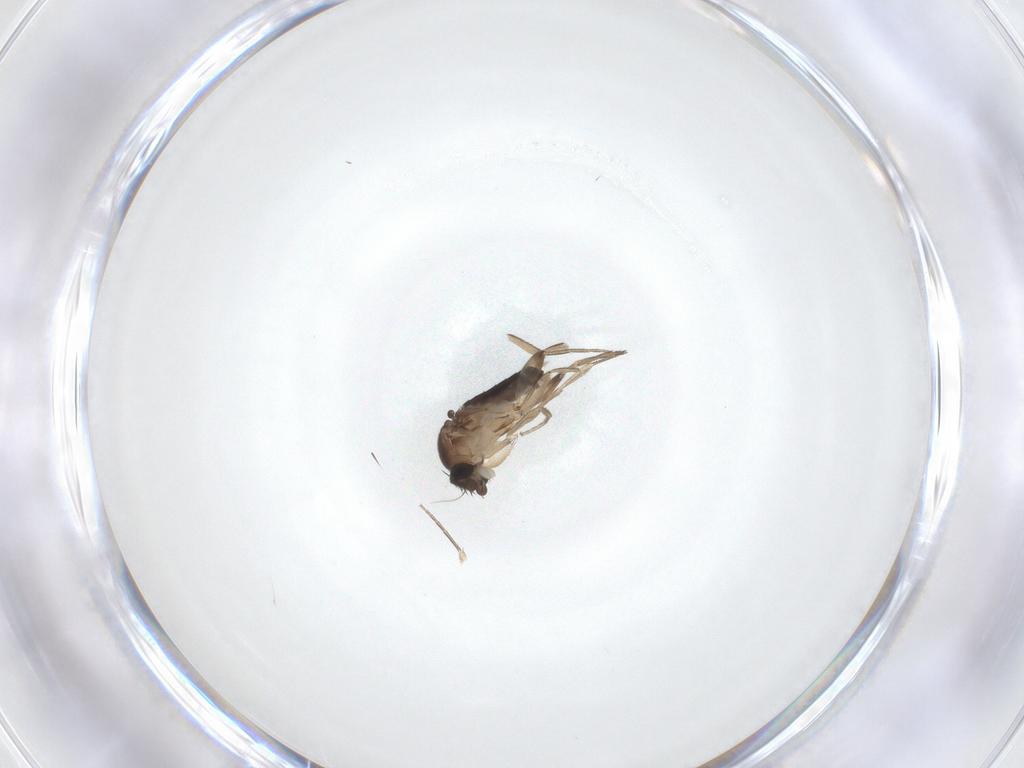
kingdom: Animalia
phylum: Arthropoda
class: Insecta
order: Diptera
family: Phoridae
